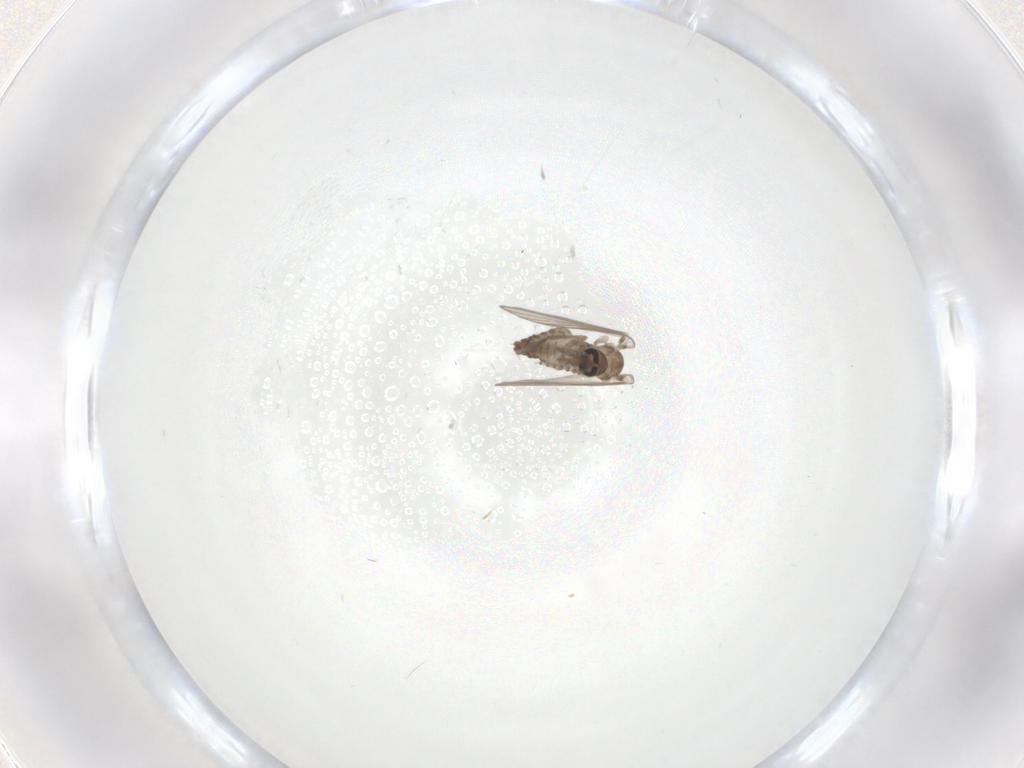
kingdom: Animalia
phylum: Arthropoda
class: Insecta
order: Diptera
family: Psychodidae
